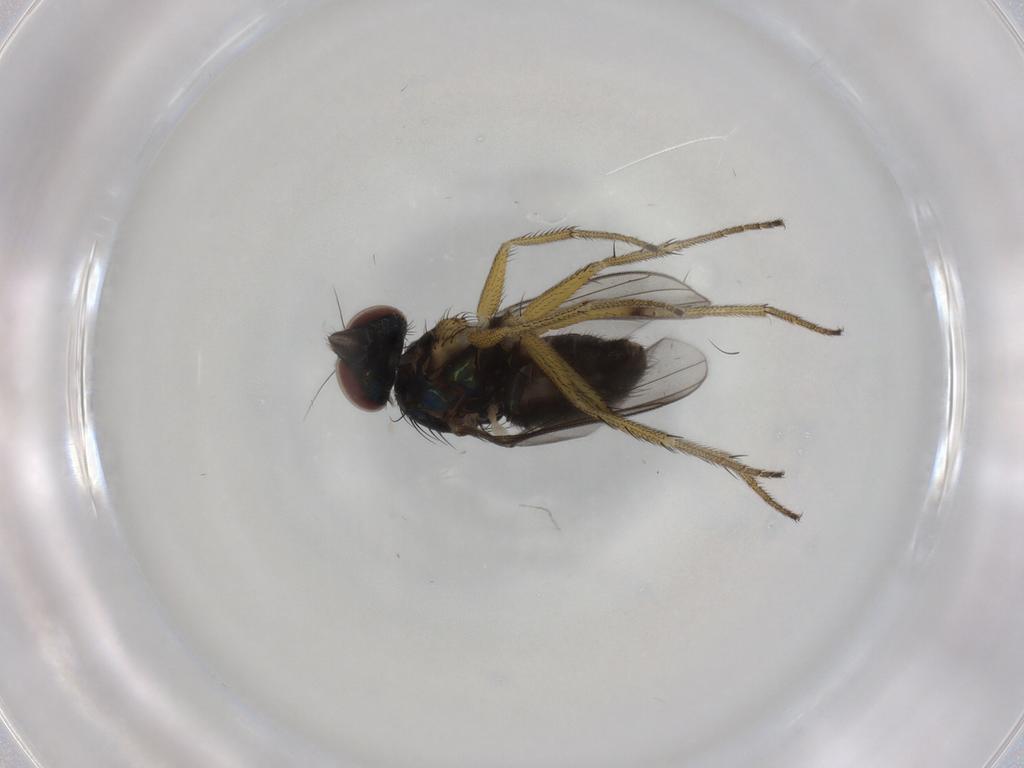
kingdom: Animalia
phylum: Arthropoda
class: Insecta
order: Diptera
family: Dolichopodidae
